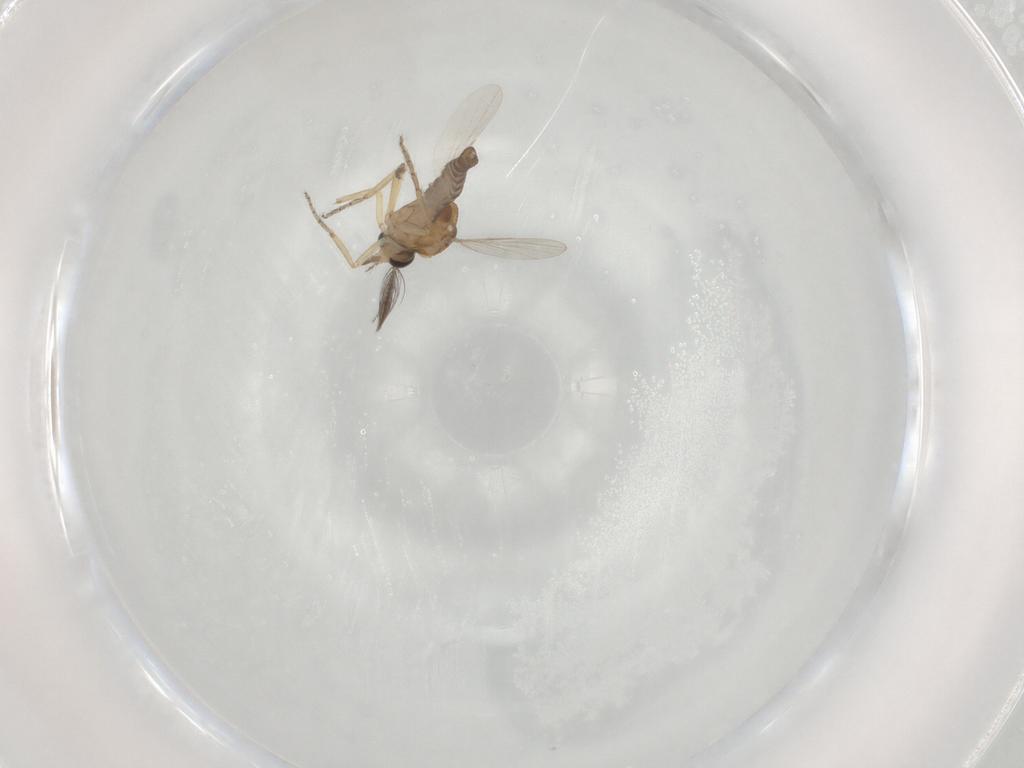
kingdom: Animalia
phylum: Arthropoda
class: Insecta
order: Diptera
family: Ceratopogonidae
